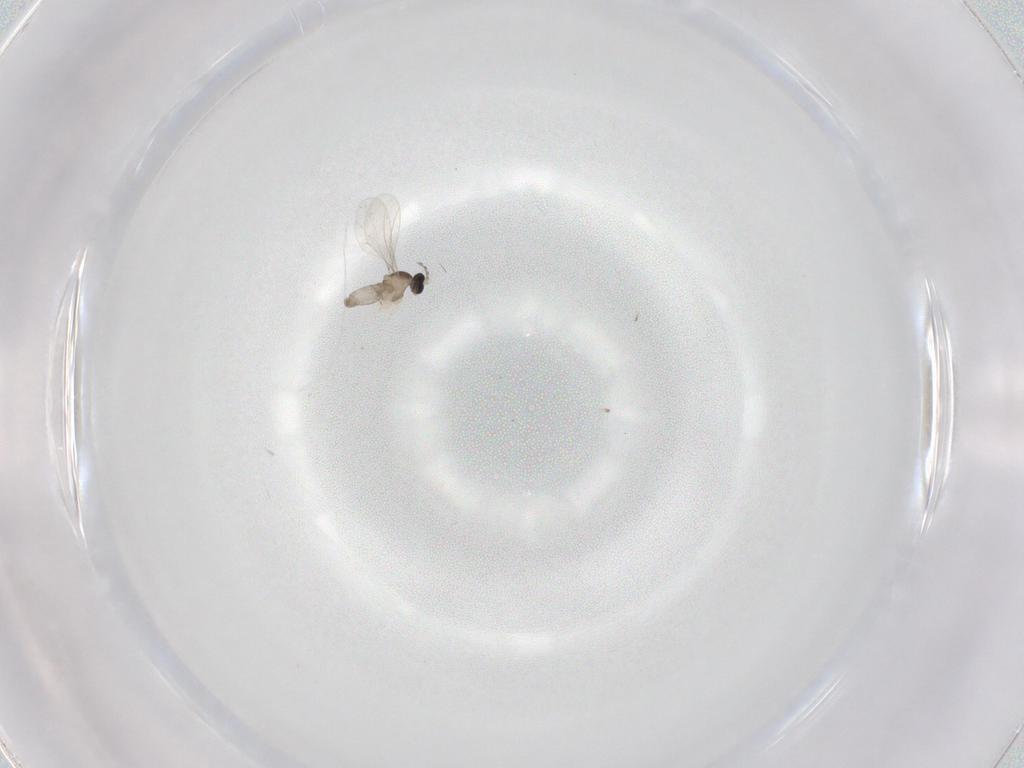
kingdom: Animalia
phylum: Arthropoda
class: Insecta
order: Diptera
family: Cecidomyiidae
